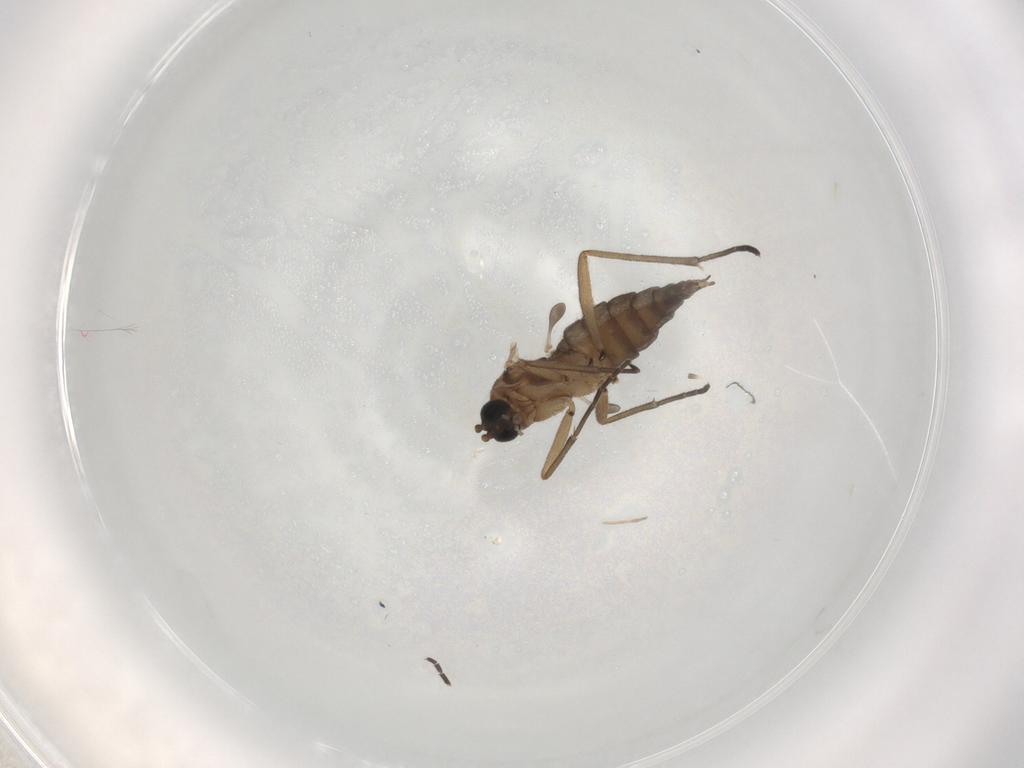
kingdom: Animalia
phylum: Arthropoda
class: Insecta
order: Diptera
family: Sciaridae
